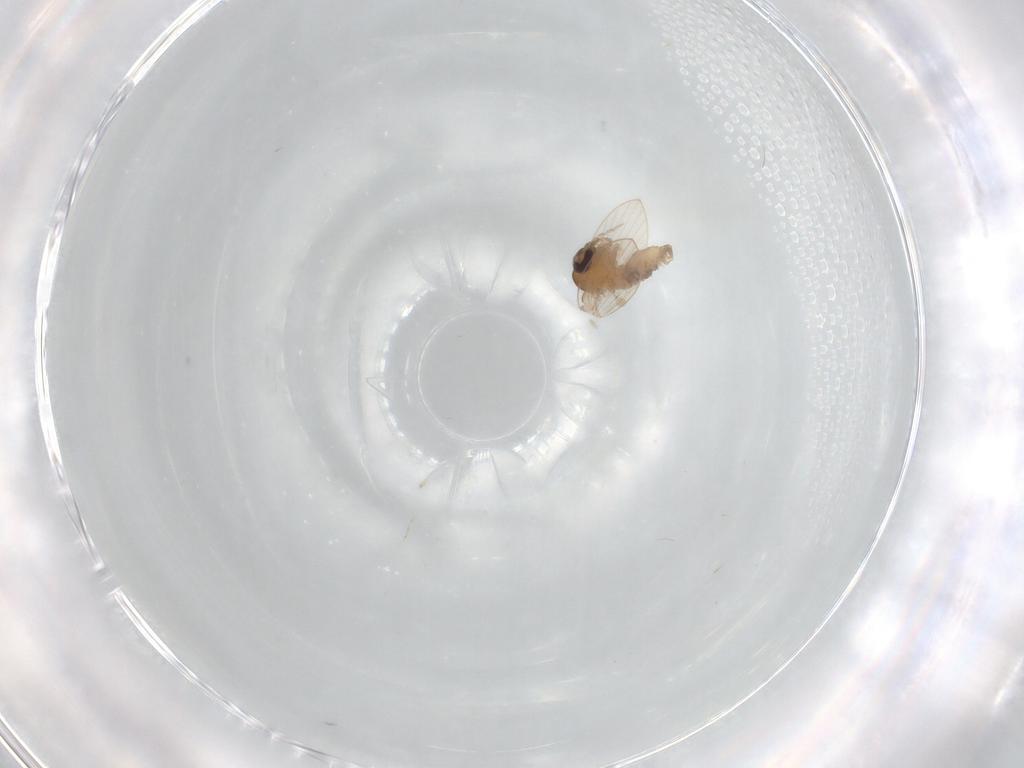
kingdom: Animalia
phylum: Arthropoda
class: Insecta
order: Diptera
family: Psychodidae
